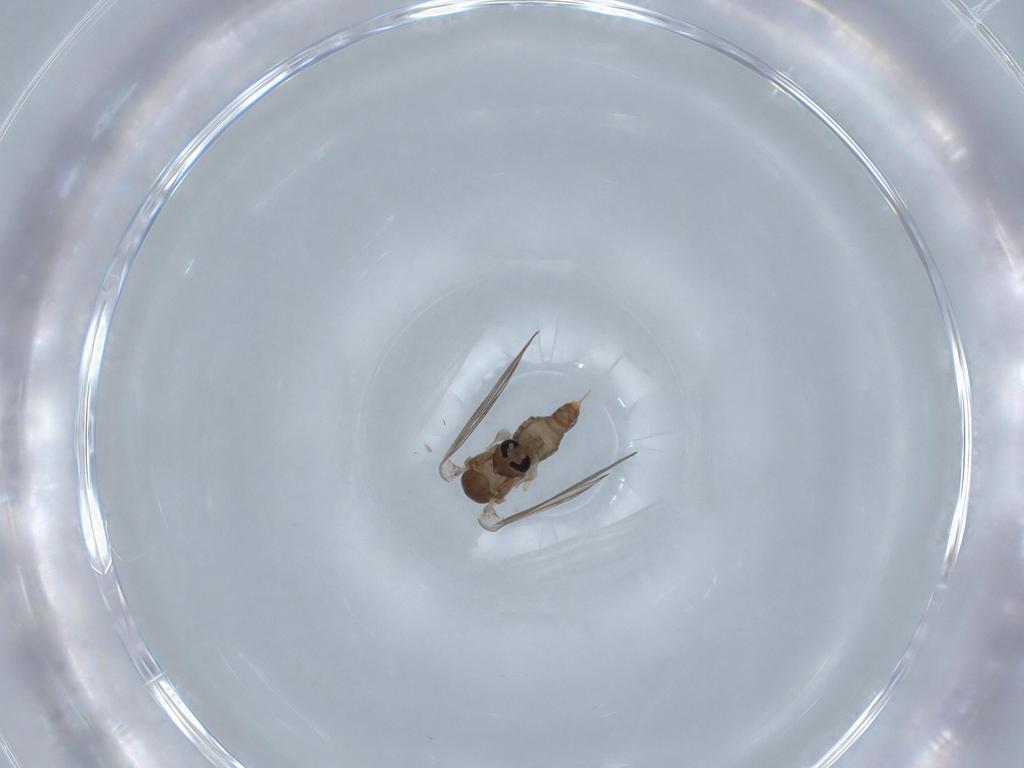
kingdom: Animalia
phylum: Arthropoda
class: Insecta
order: Diptera
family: Psychodidae
